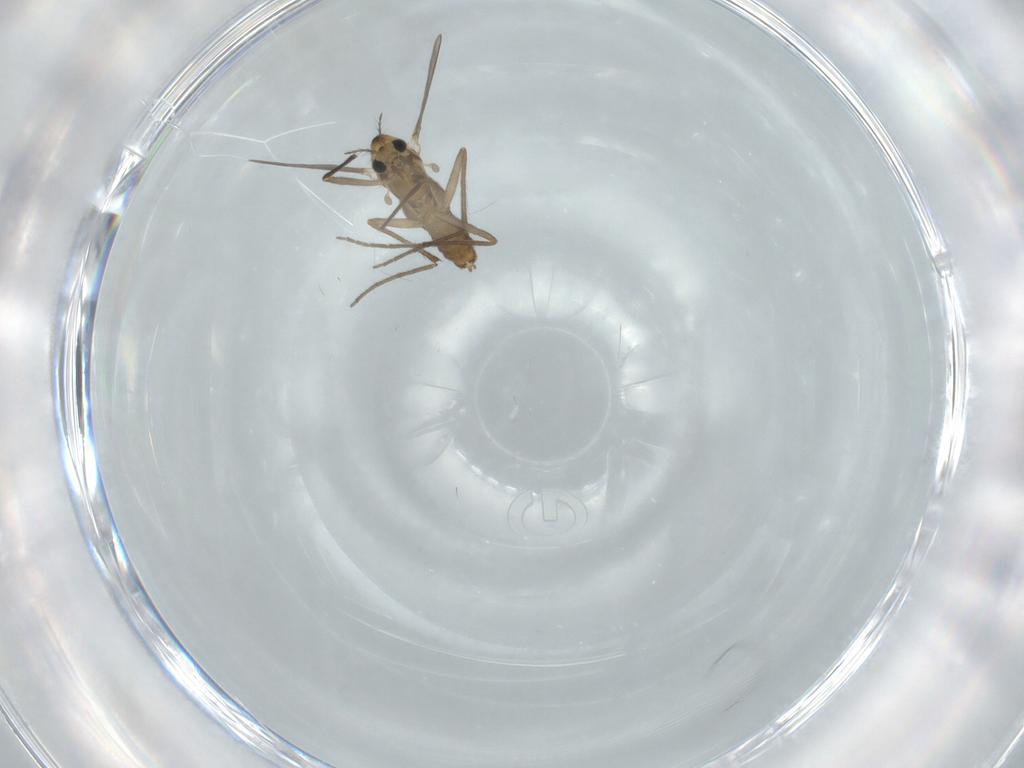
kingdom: Animalia
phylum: Arthropoda
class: Insecta
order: Diptera
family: Chironomidae
